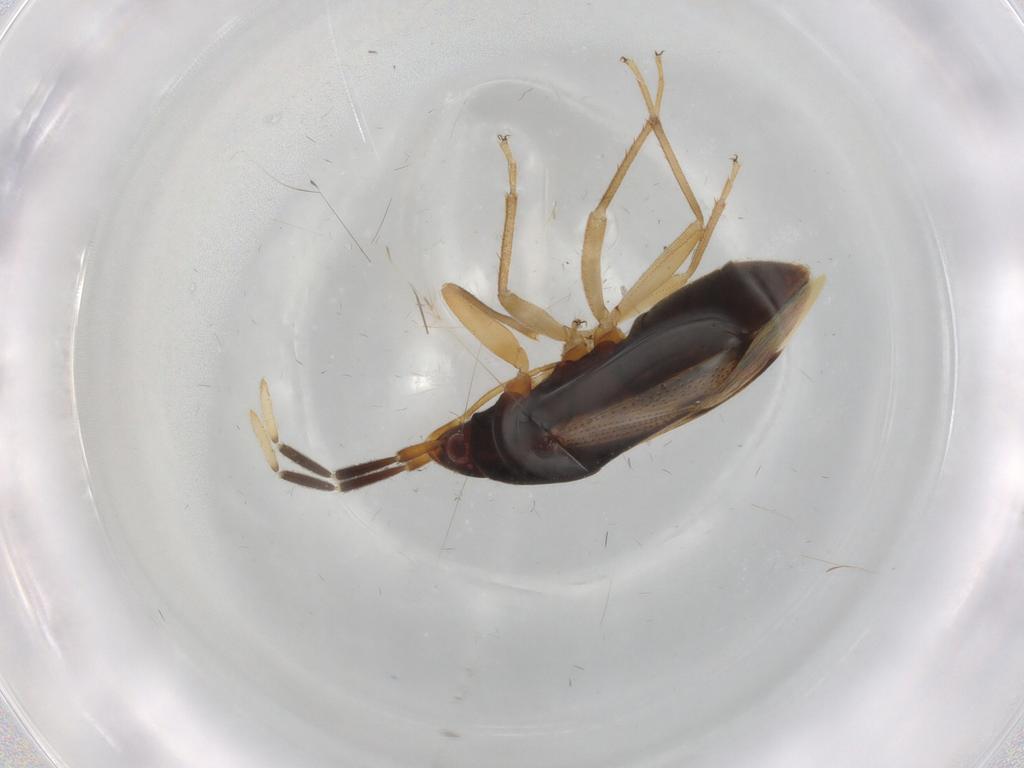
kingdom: Animalia
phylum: Arthropoda
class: Insecta
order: Hemiptera
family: Rhyparochromidae
